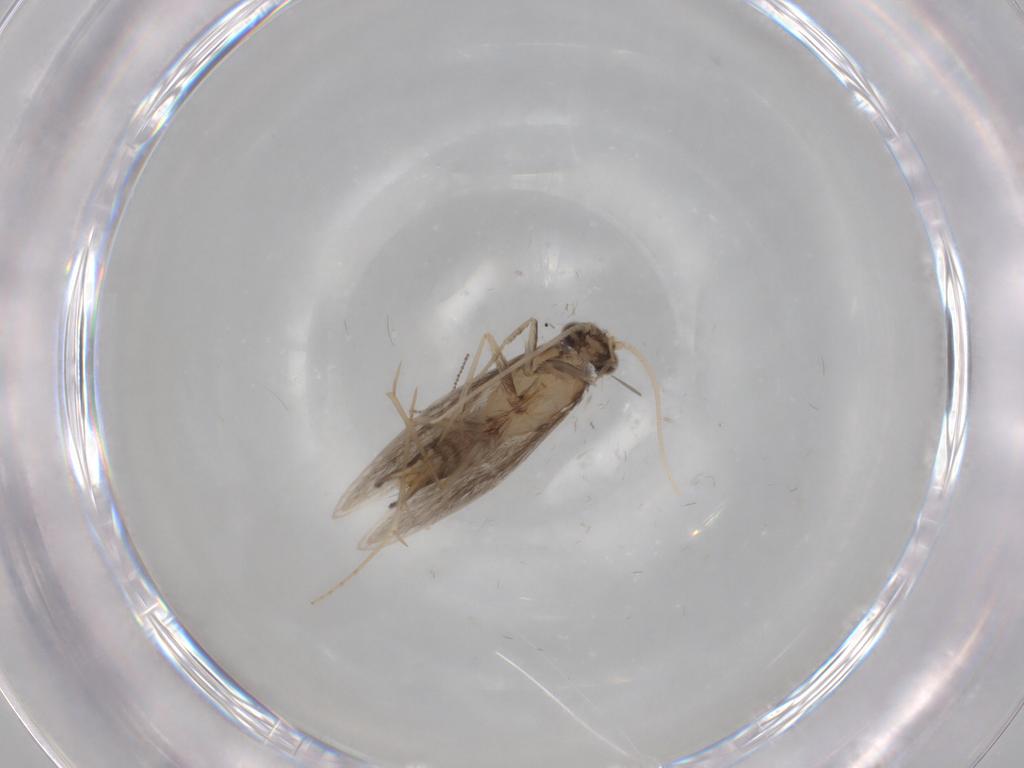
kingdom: Animalia
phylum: Arthropoda
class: Insecta
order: Trichoptera
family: Hydroptilidae
